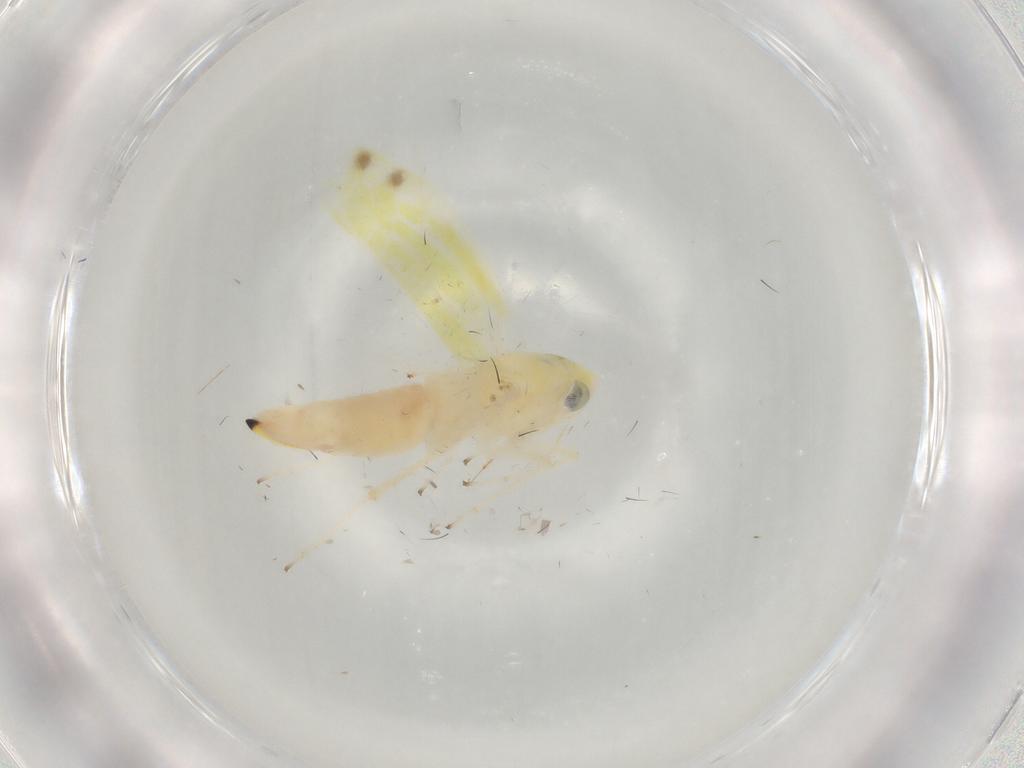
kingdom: Animalia
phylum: Arthropoda
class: Insecta
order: Hemiptera
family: Cicadellidae
